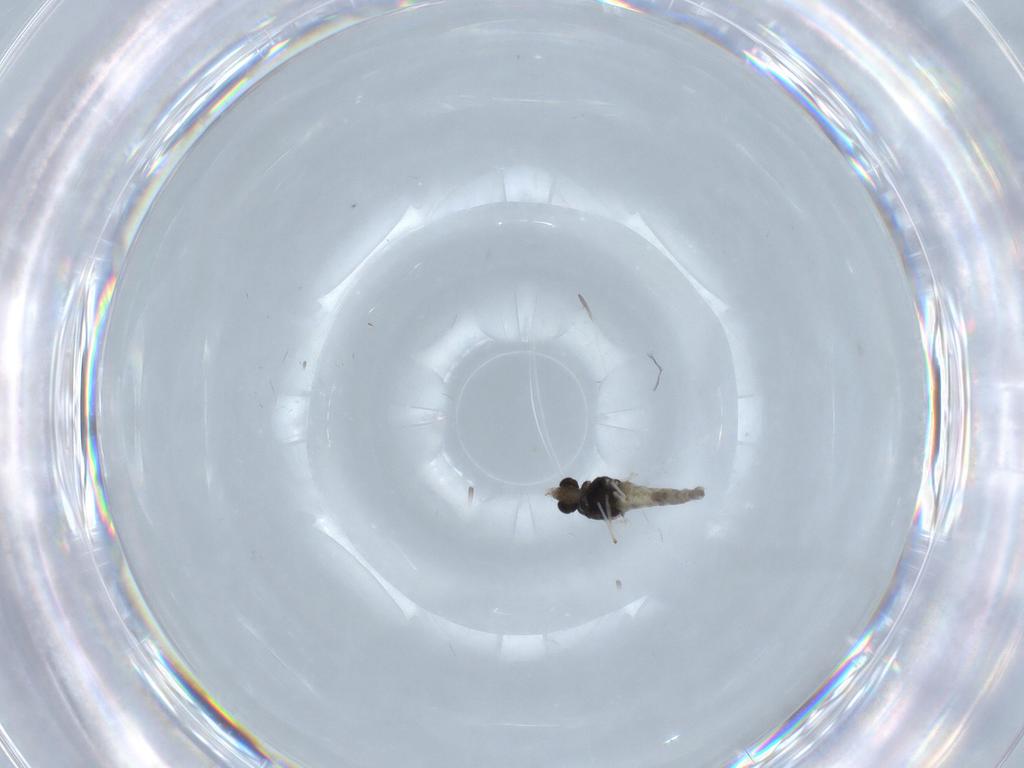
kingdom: Animalia
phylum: Arthropoda
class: Insecta
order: Diptera
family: Chironomidae
